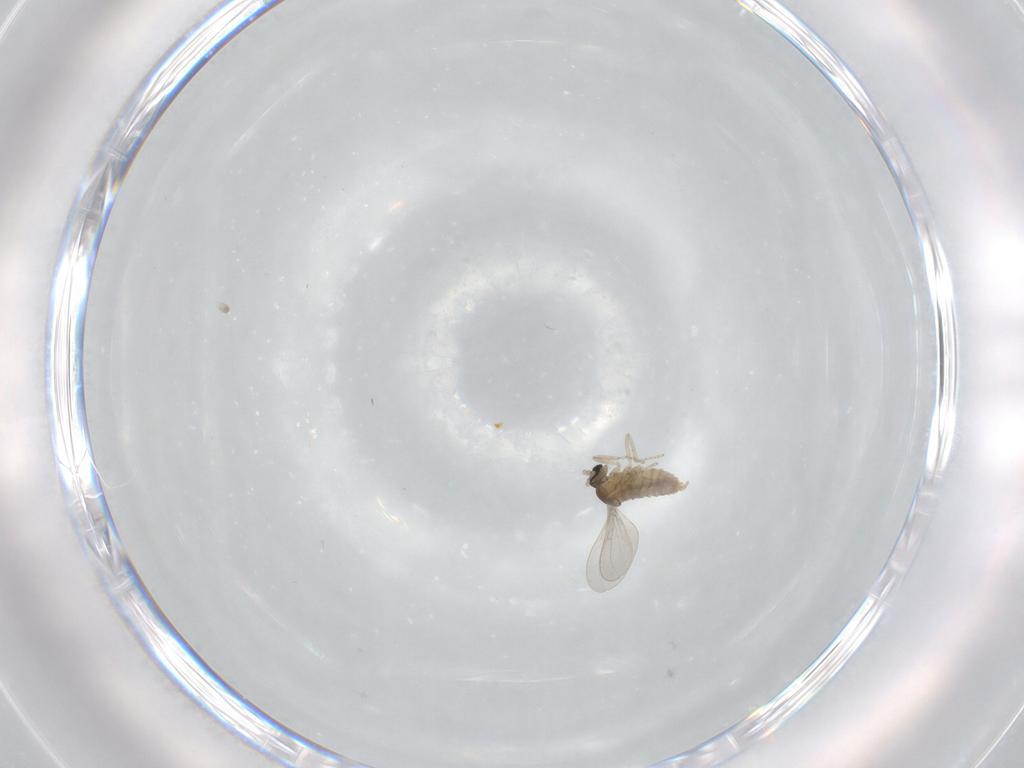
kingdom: Animalia
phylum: Arthropoda
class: Insecta
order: Diptera
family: Cecidomyiidae
